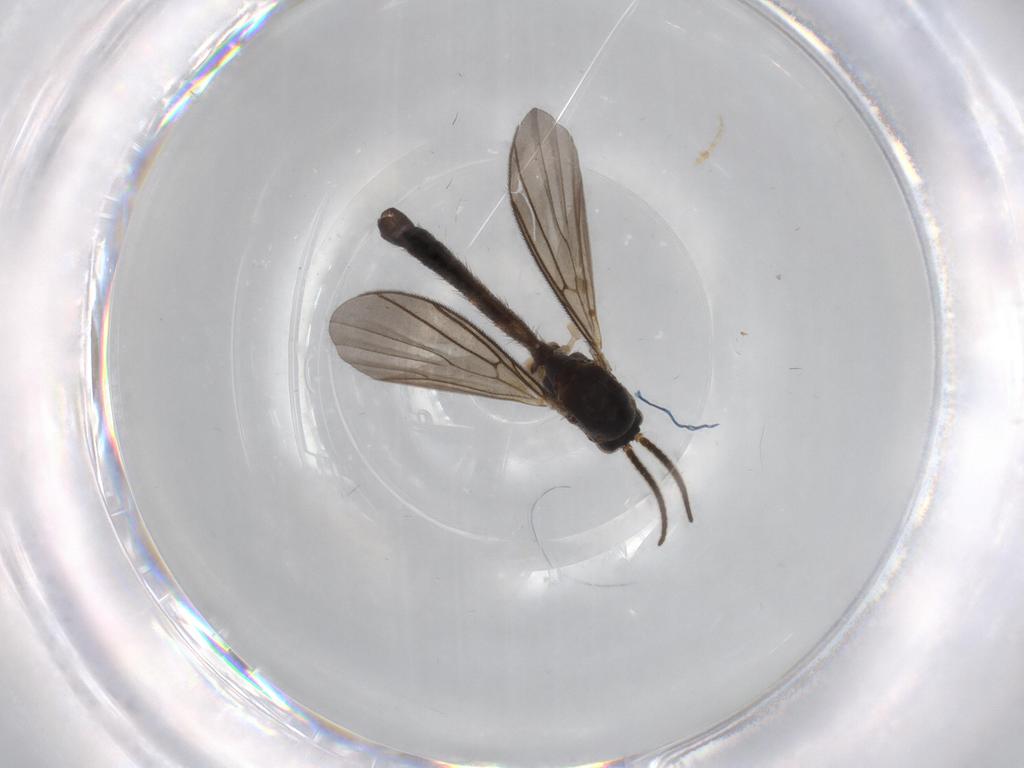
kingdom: Animalia
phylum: Arthropoda
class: Insecta
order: Diptera
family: Mycetophilidae
